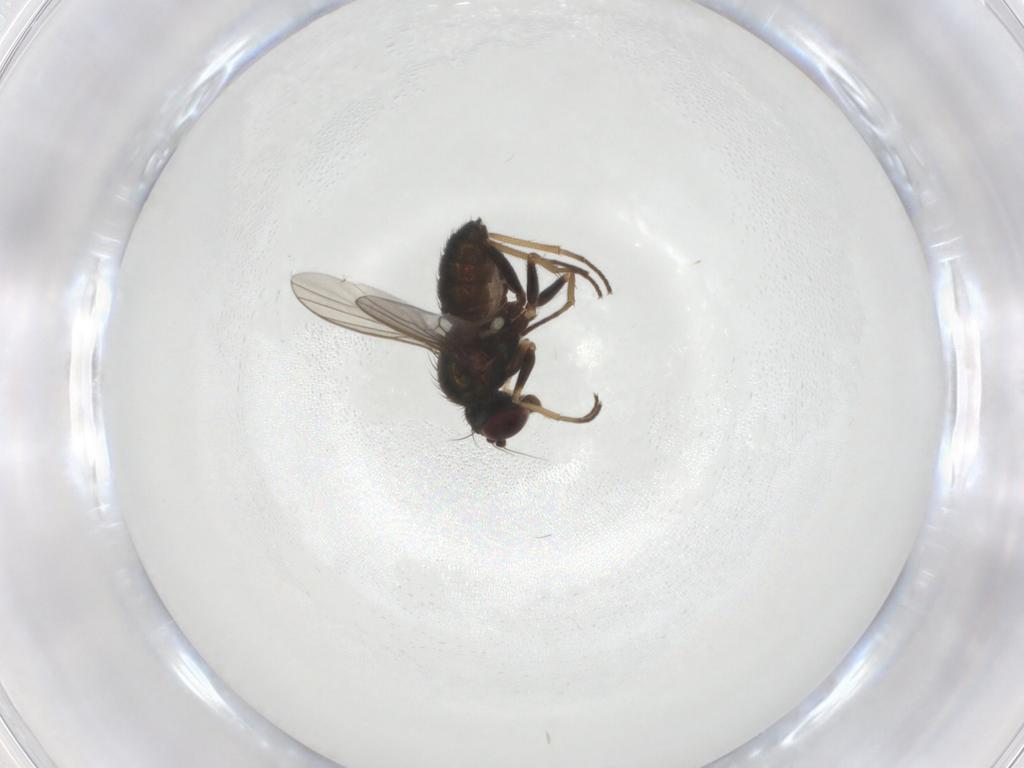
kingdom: Animalia
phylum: Arthropoda
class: Insecta
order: Diptera
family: Dolichopodidae
